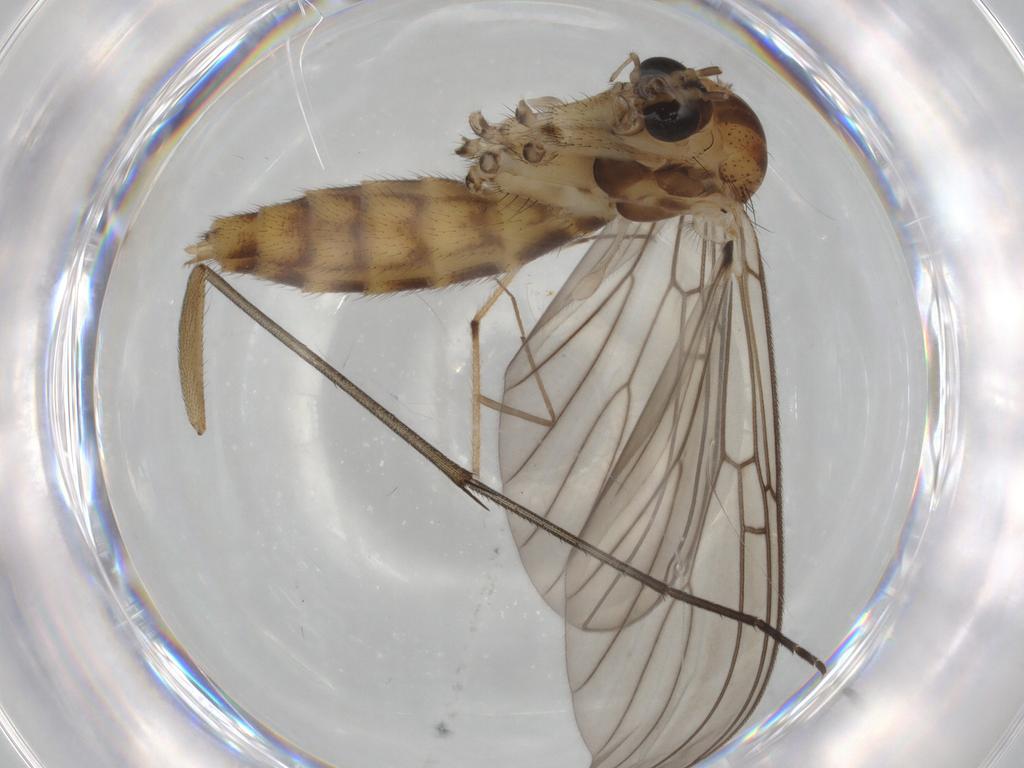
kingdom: Animalia
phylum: Arthropoda
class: Insecta
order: Diptera
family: Mycetophilidae
